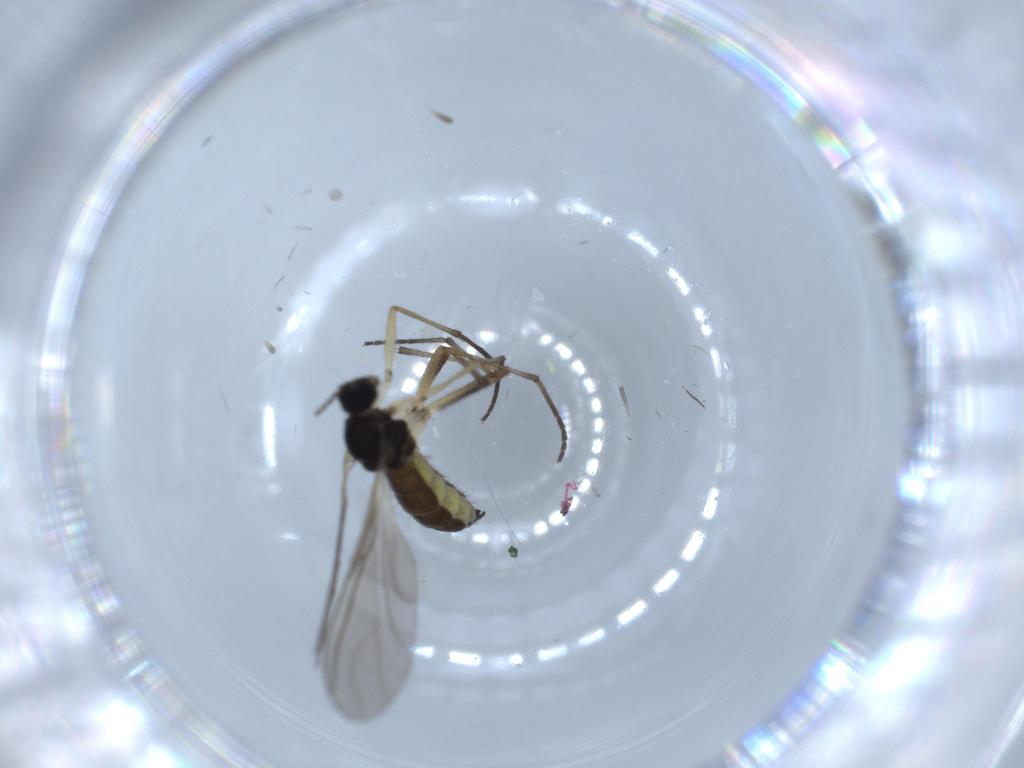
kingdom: Animalia
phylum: Arthropoda
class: Insecta
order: Diptera
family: Sciaridae
